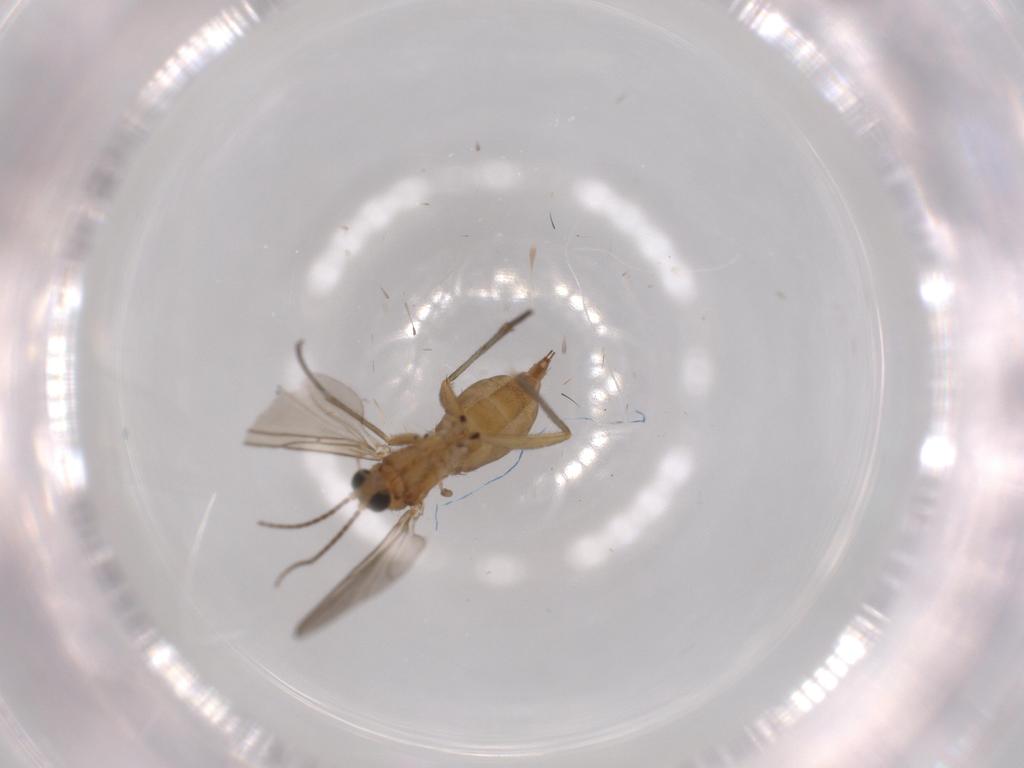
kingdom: Animalia
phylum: Arthropoda
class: Insecta
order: Diptera
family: Sciaridae
